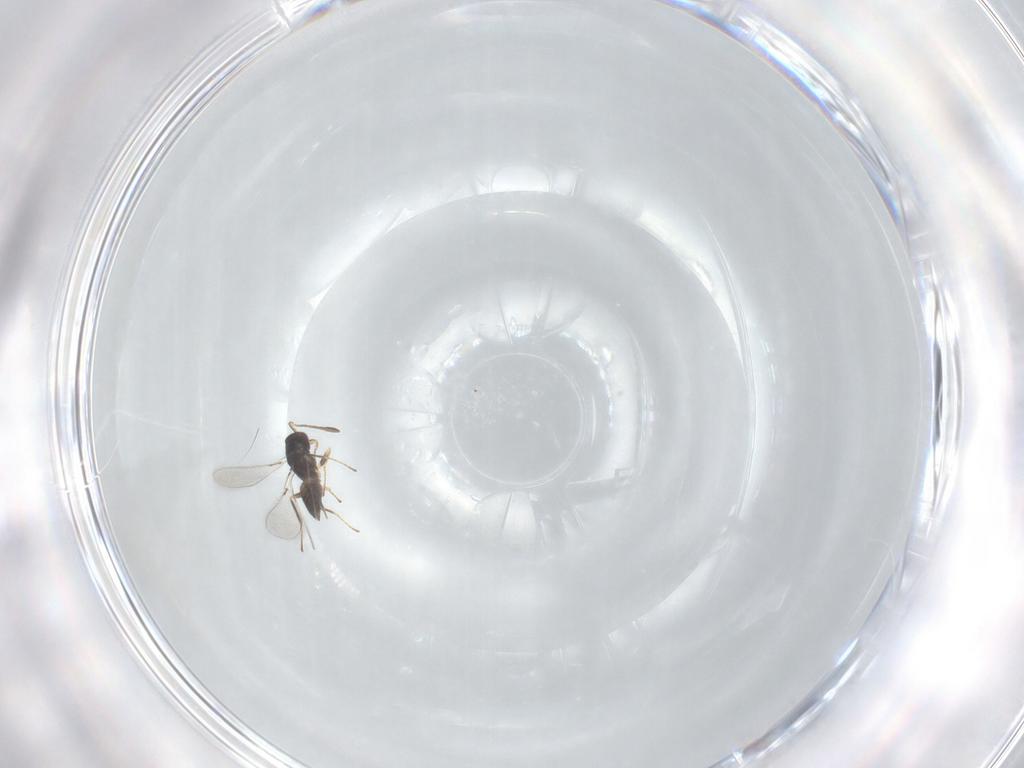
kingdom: Animalia
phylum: Arthropoda
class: Insecta
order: Hymenoptera
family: Mymaridae
